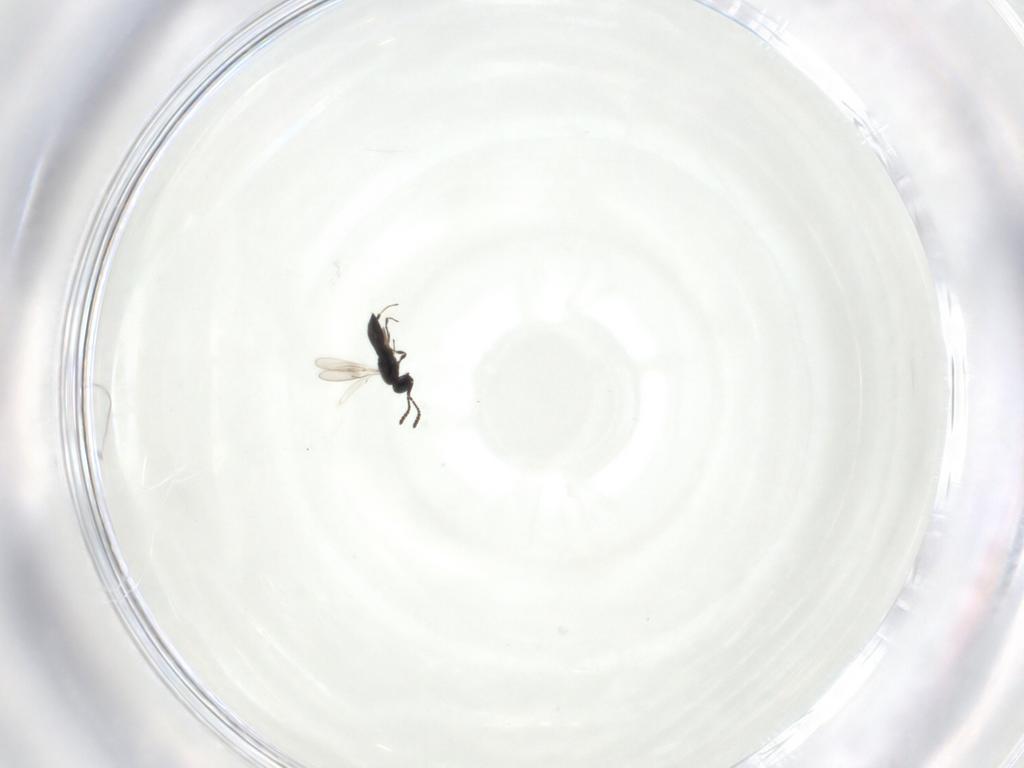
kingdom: Animalia
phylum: Arthropoda
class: Insecta
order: Hymenoptera
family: Scelionidae
